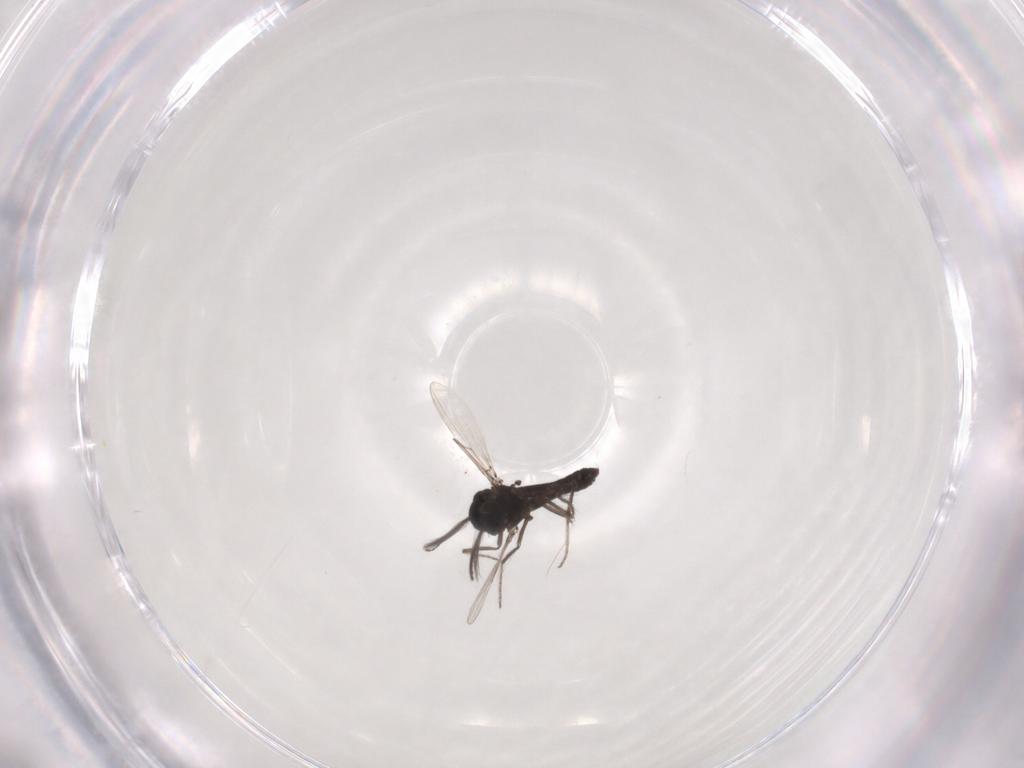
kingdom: Animalia
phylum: Arthropoda
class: Insecta
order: Diptera
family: Ceratopogonidae
